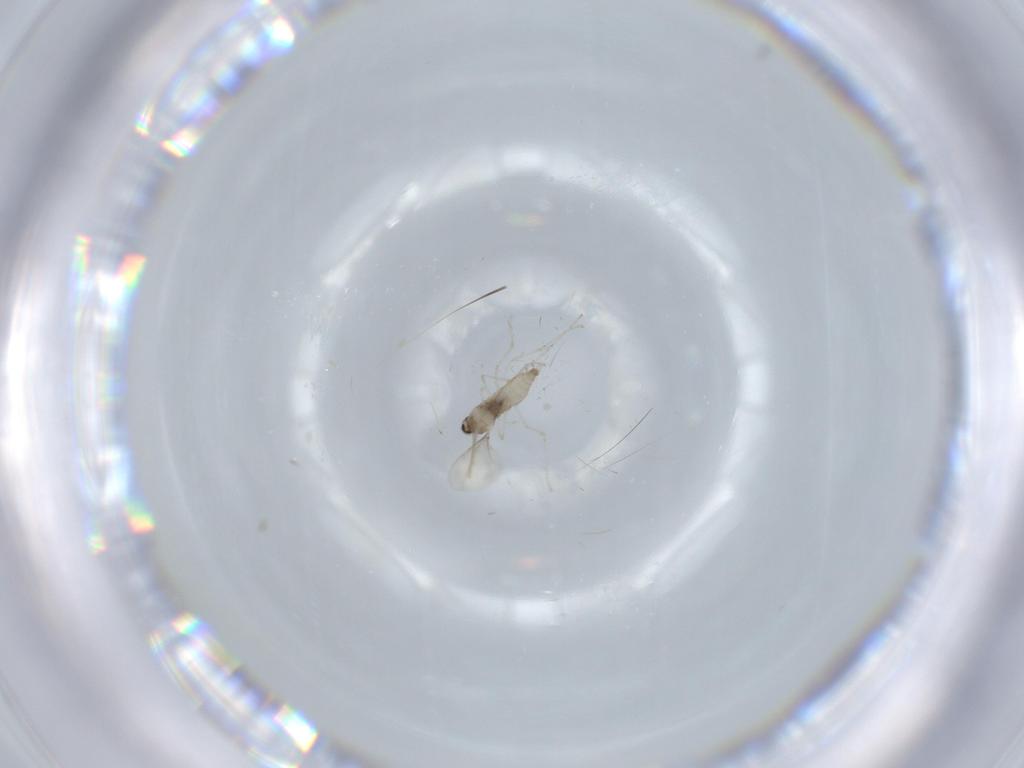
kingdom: Animalia
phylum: Arthropoda
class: Insecta
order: Diptera
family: Cecidomyiidae
